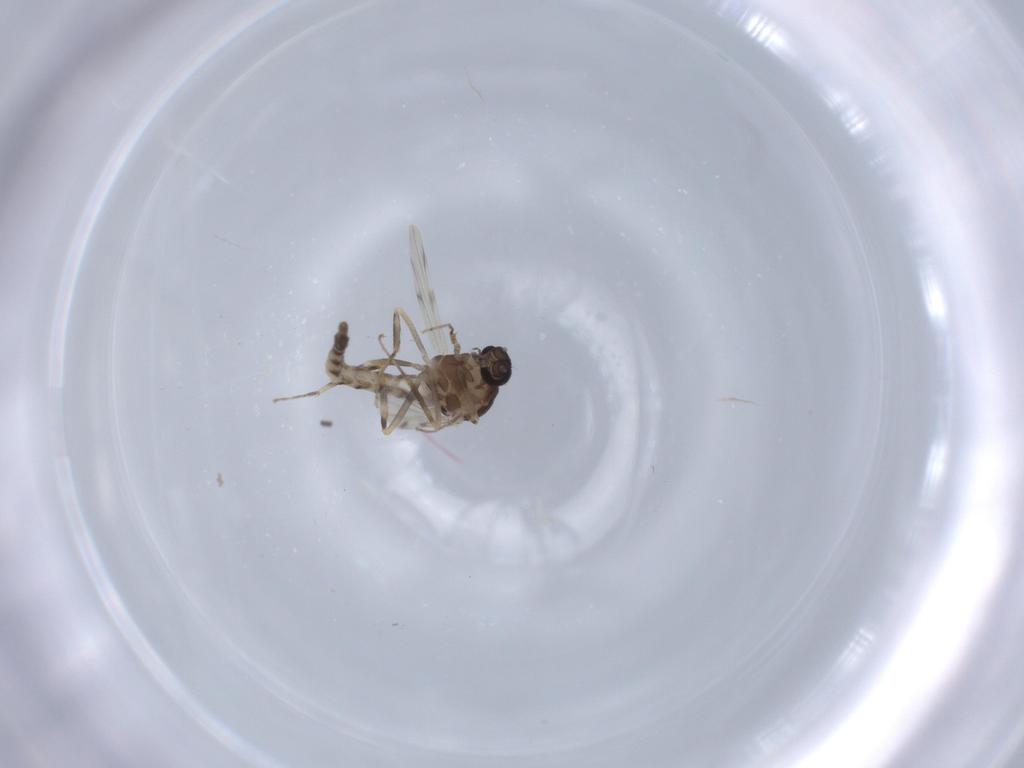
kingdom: Animalia
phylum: Arthropoda
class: Insecta
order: Diptera
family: Ceratopogonidae
